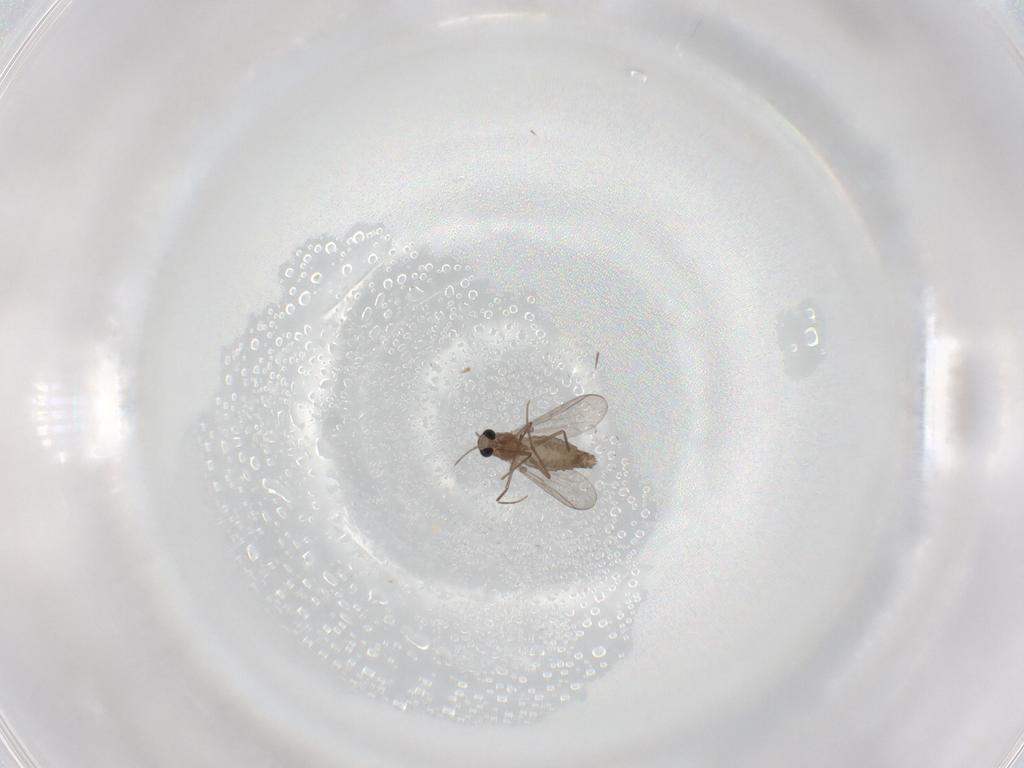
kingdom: Animalia
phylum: Arthropoda
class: Insecta
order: Diptera
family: Chironomidae
